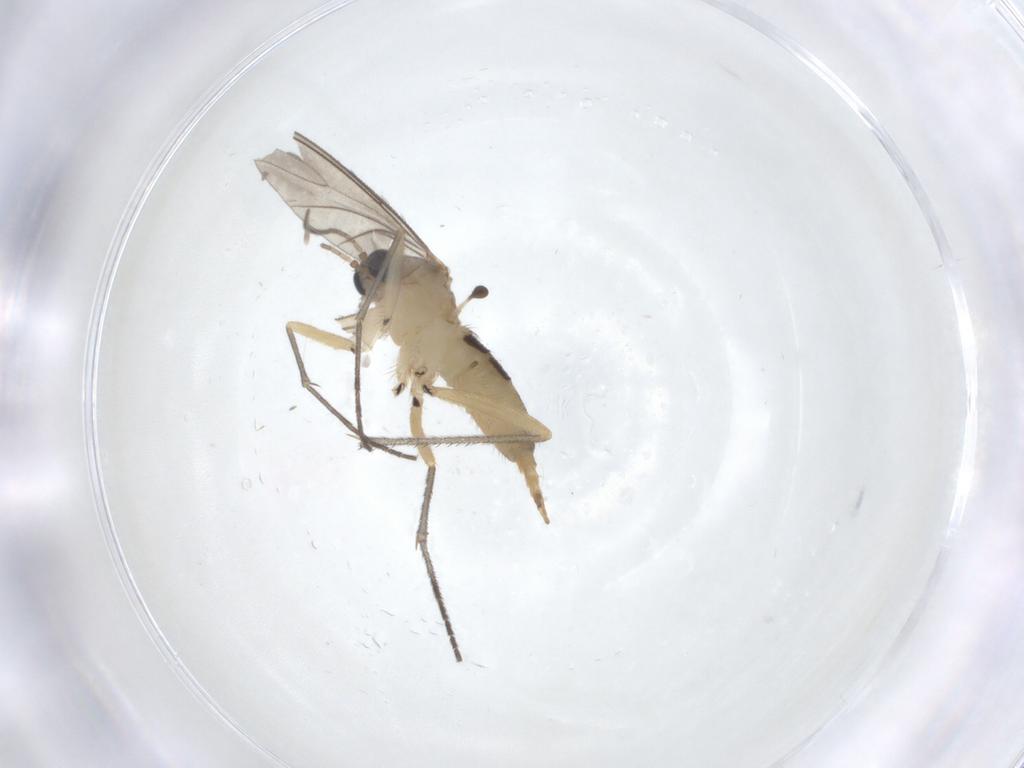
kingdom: Animalia
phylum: Arthropoda
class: Insecta
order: Diptera
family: Sciaridae
